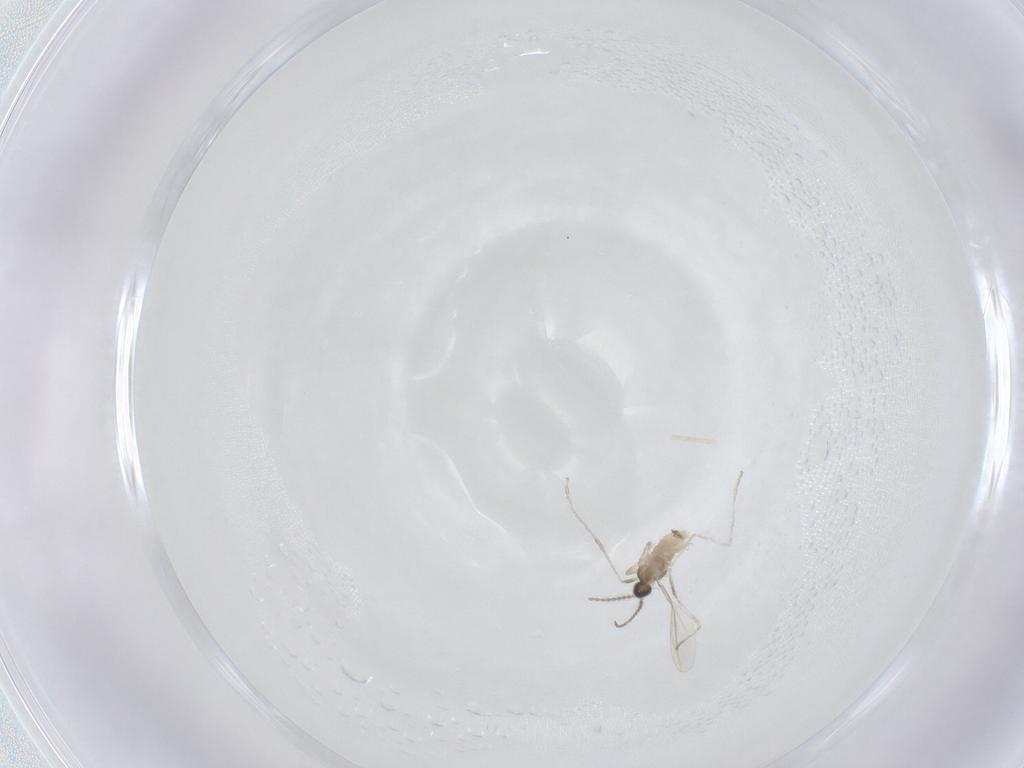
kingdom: Animalia
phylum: Arthropoda
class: Insecta
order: Diptera
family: Cecidomyiidae
